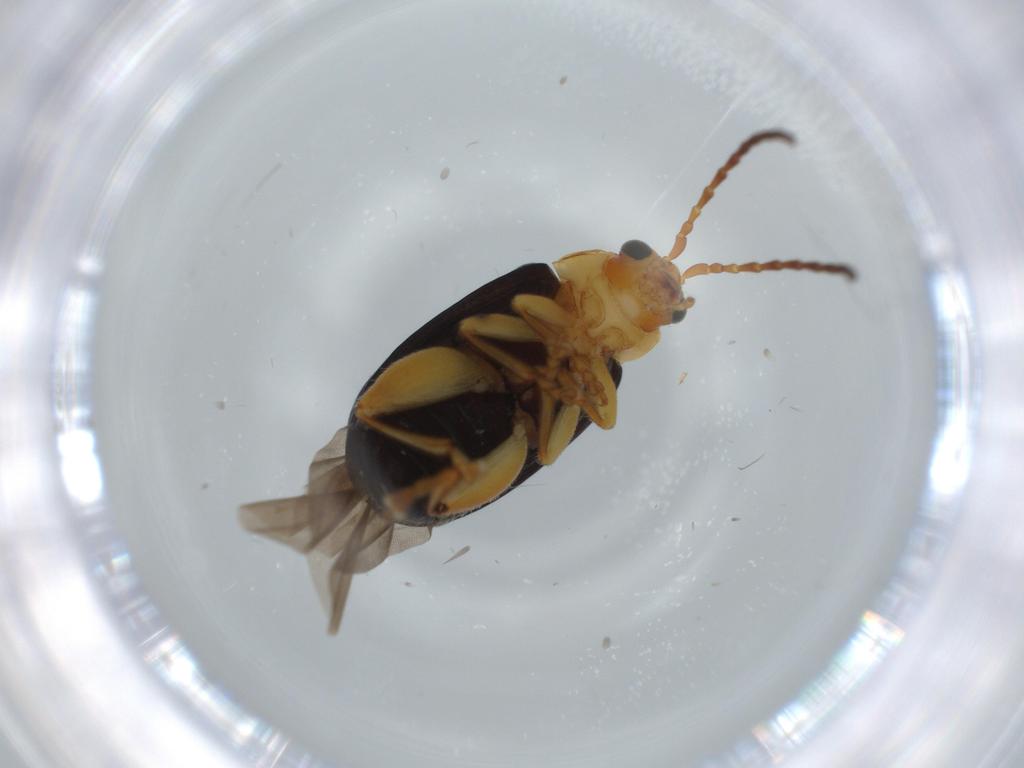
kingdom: Animalia
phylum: Arthropoda
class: Insecta
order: Coleoptera
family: Chrysomelidae
